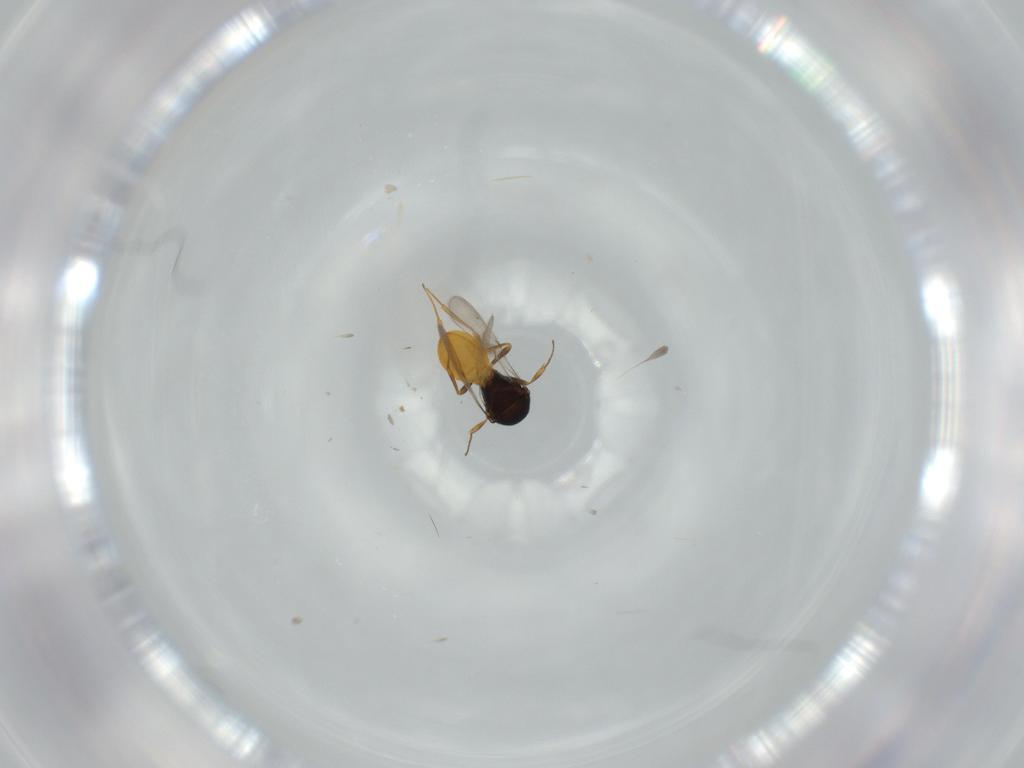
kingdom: Animalia
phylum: Arthropoda
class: Insecta
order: Hymenoptera
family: Scelionidae
